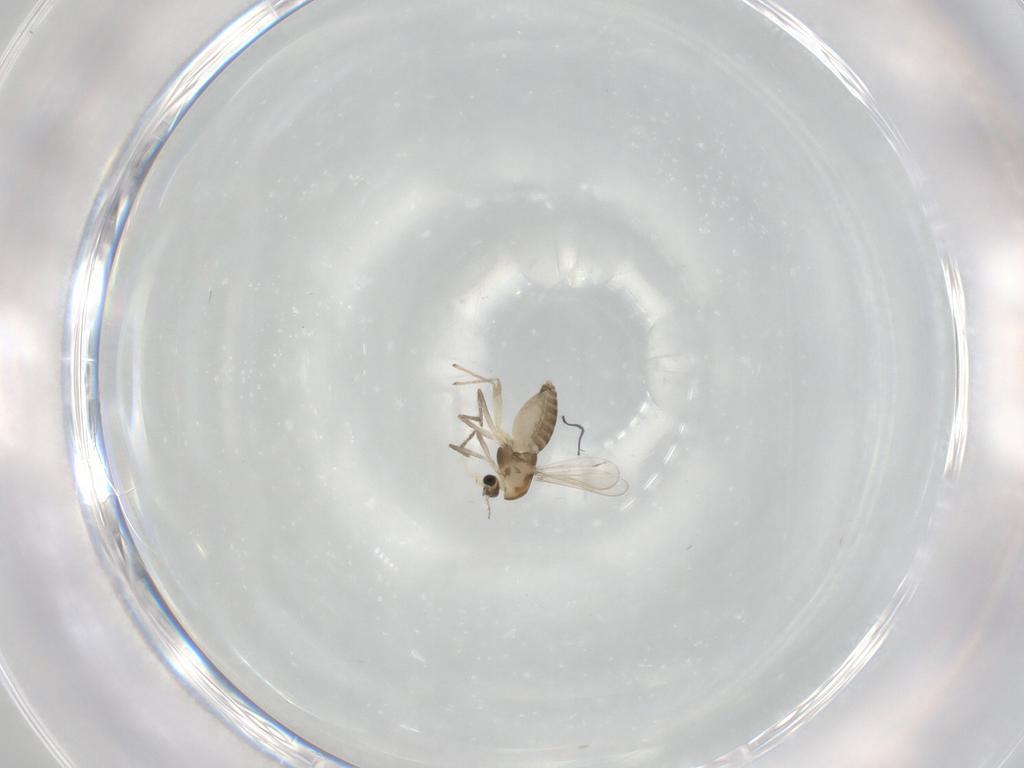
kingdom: Animalia
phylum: Arthropoda
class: Insecta
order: Diptera
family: Chironomidae
